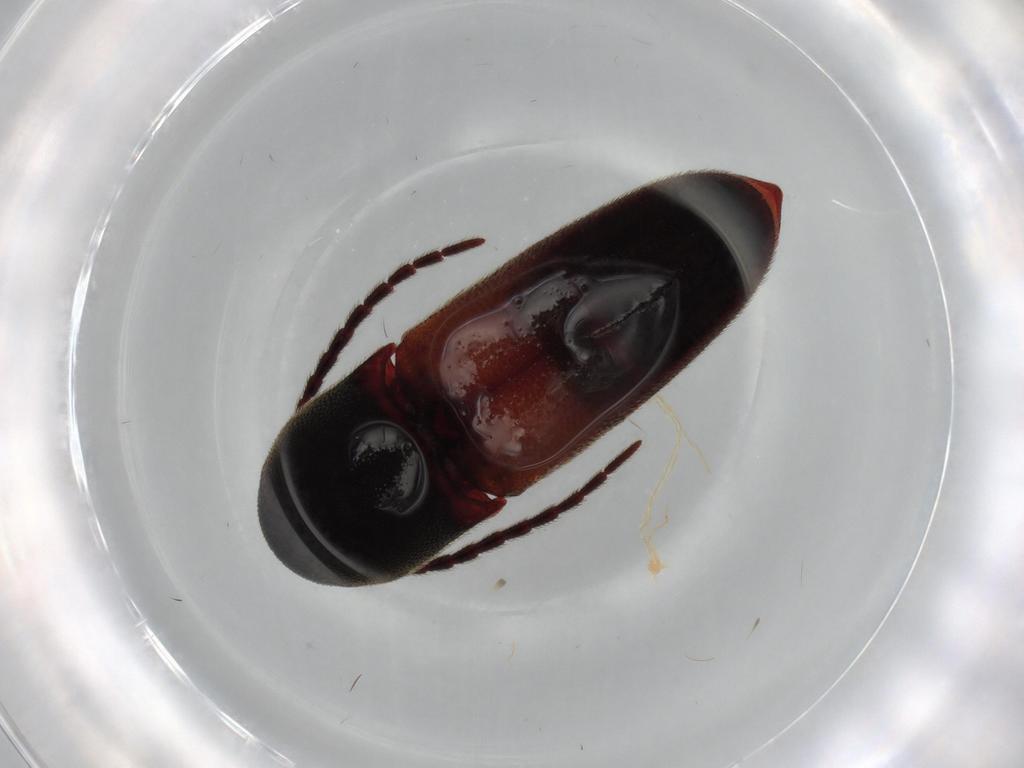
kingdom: Animalia
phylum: Arthropoda
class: Insecta
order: Coleoptera
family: Eucnemidae
